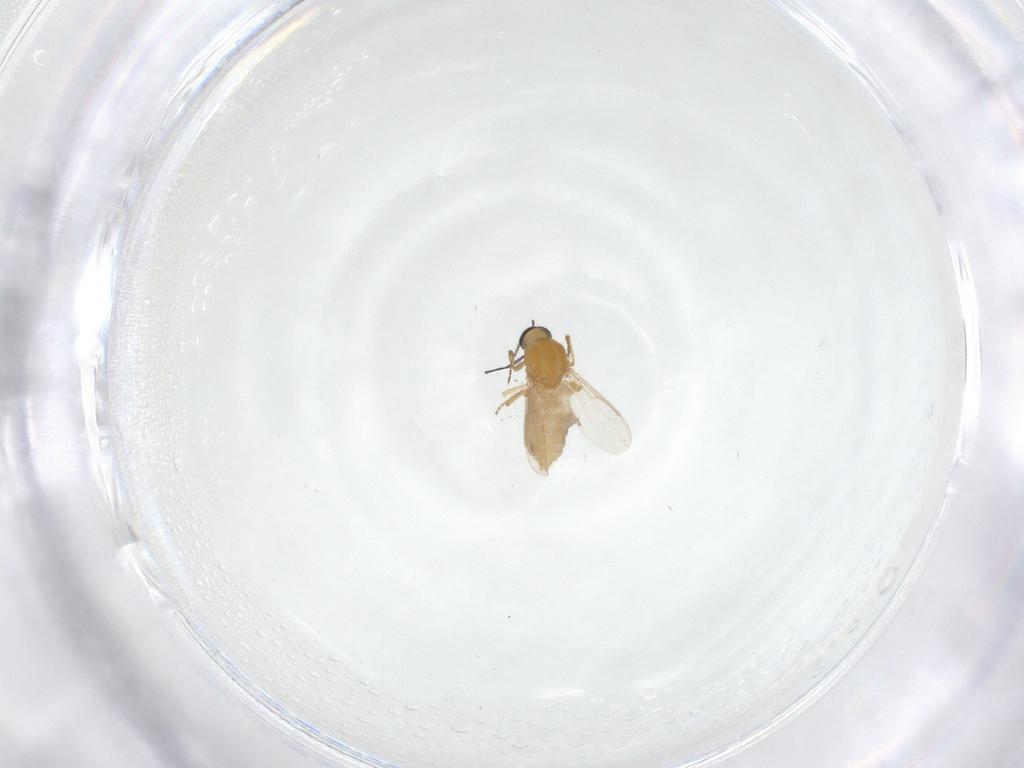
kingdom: Animalia
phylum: Arthropoda
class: Insecta
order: Diptera
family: Ceratopogonidae
